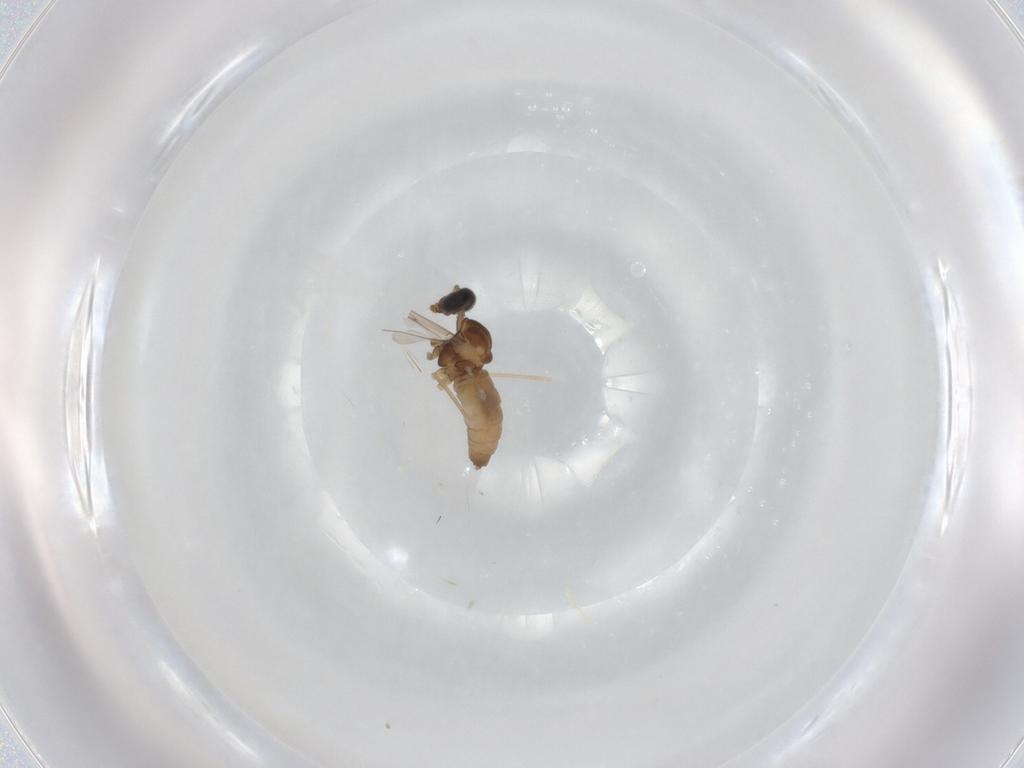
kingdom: Animalia
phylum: Arthropoda
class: Insecta
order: Diptera
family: Cecidomyiidae
